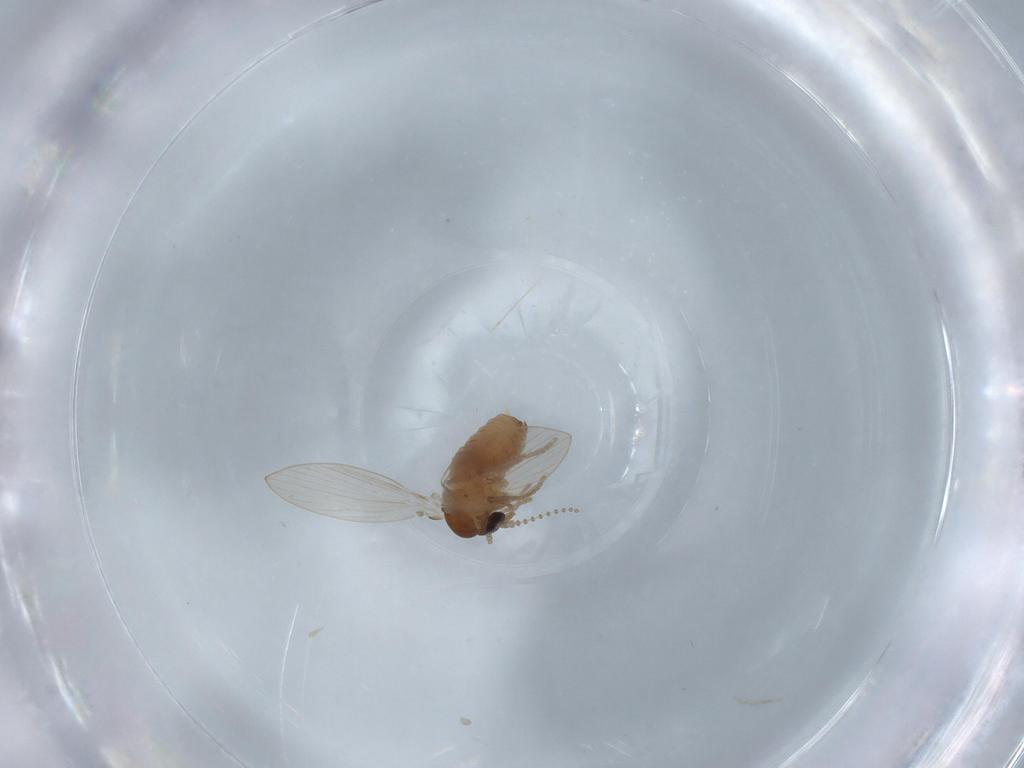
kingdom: Animalia
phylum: Arthropoda
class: Insecta
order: Diptera
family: Psychodidae
